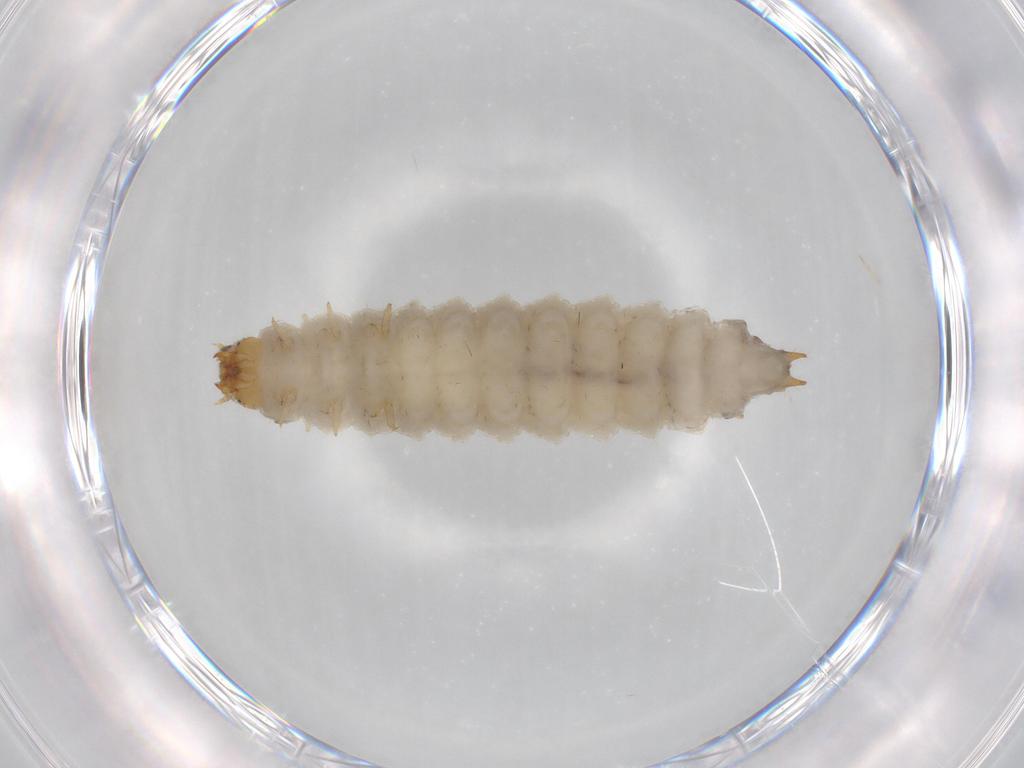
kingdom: Animalia
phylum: Arthropoda
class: Insecta
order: Coleoptera
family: Nitidulidae
